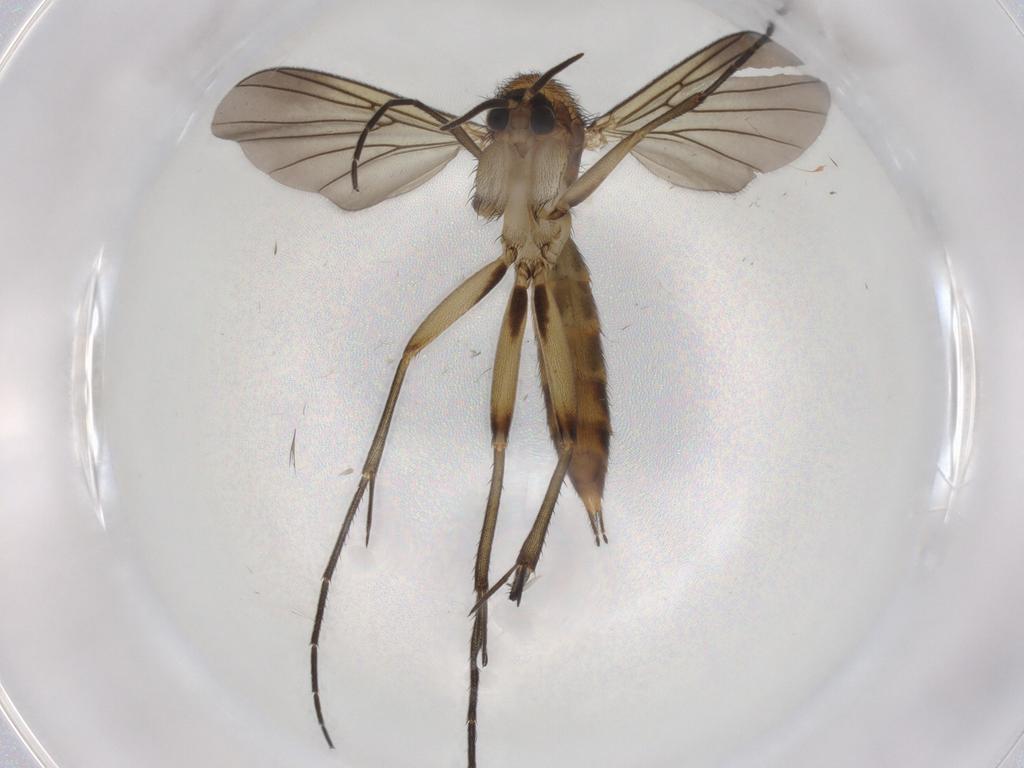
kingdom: Animalia
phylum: Arthropoda
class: Insecta
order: Diptera
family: Mycetophilidae
